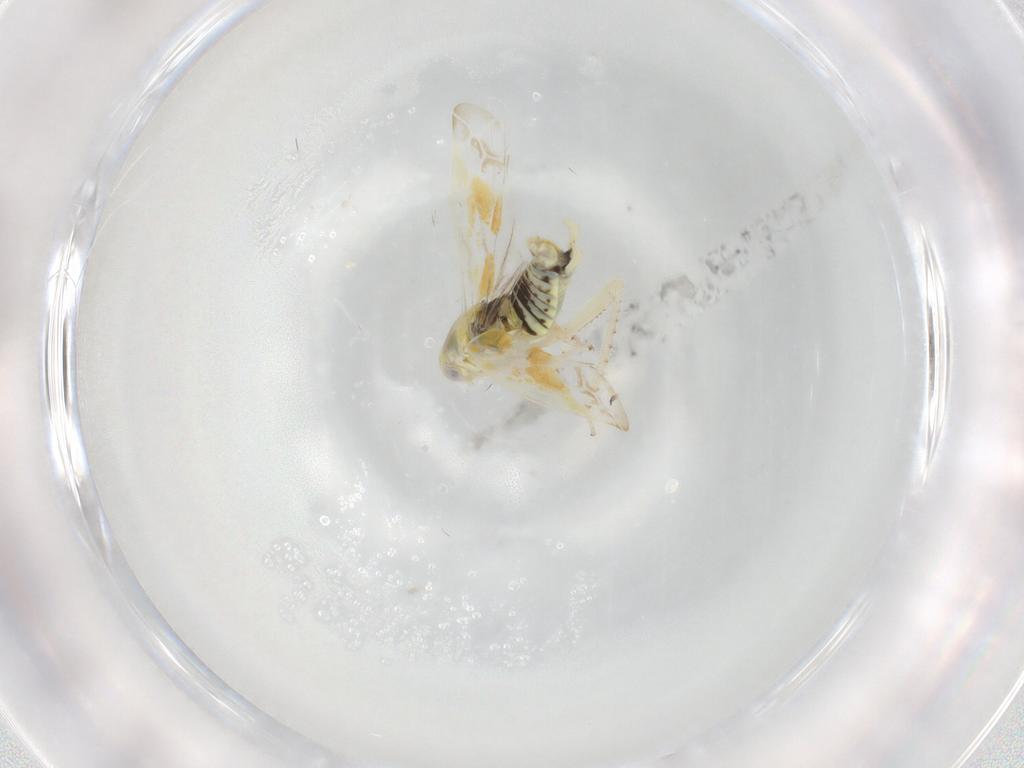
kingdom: Animalia
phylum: Arthropoda
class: Insecta
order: Hemiptera
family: Cicadellidae
